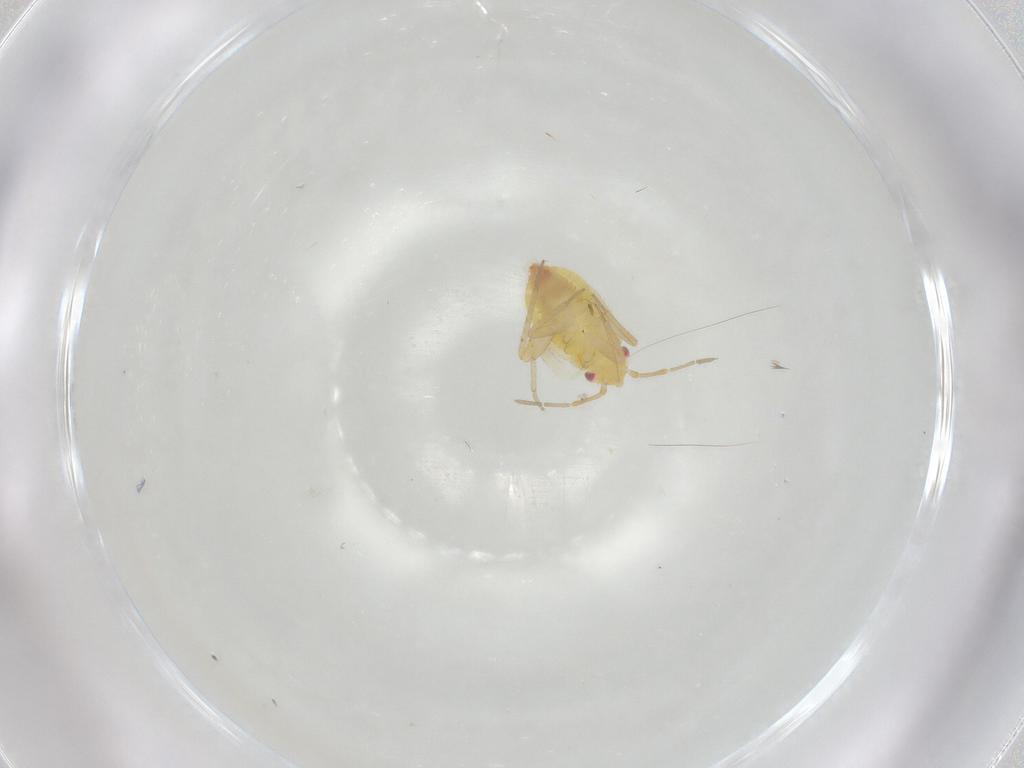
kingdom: Animalia
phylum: Arthropoda
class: Insecta
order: Hemiptera
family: Miridae
